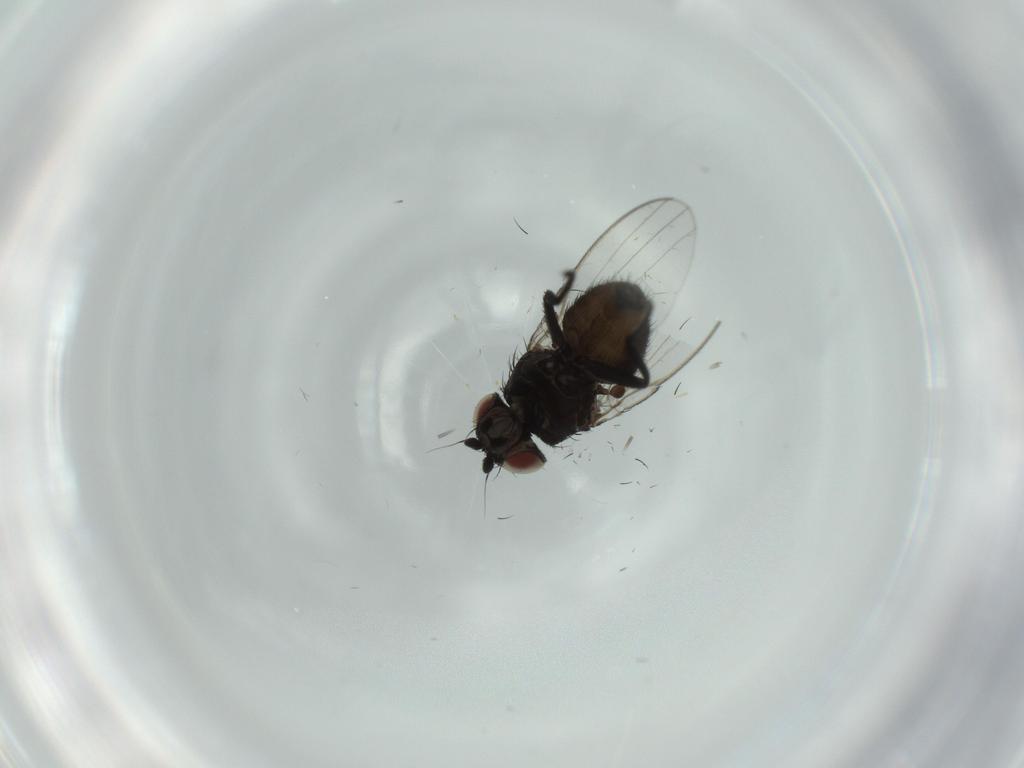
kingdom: Animalia
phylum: Arthropoda
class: Insecta
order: Diptera
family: Milichiidae
